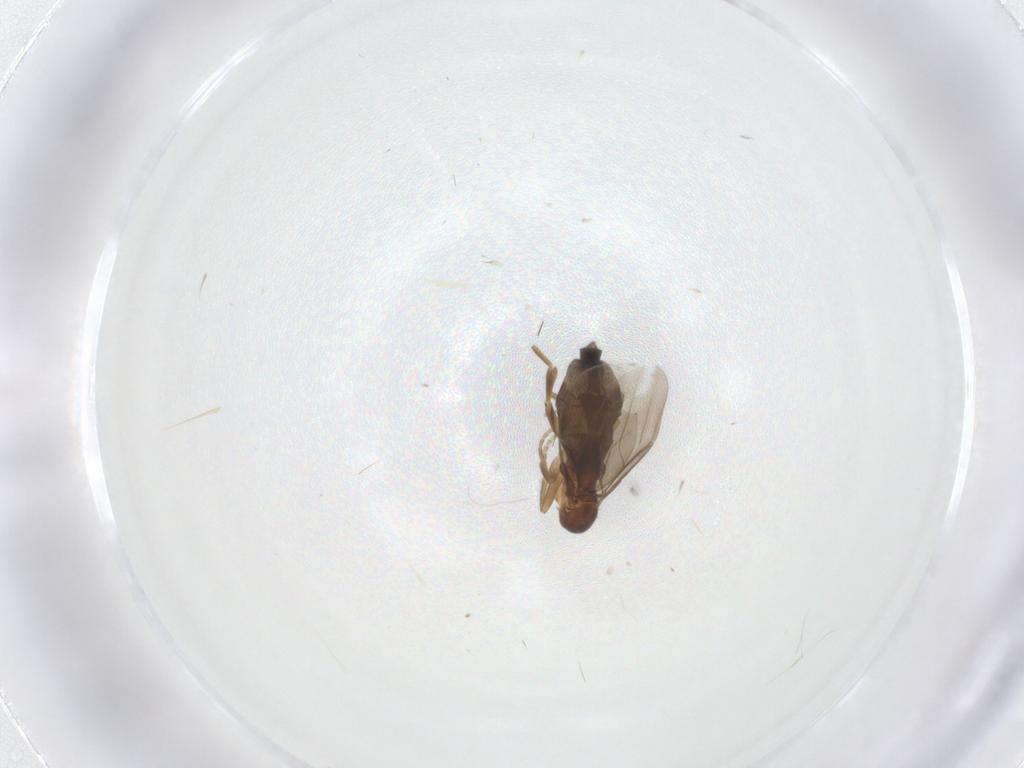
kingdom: Animalia
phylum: Arthropoda
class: Insecta
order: Diptera
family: Phoridae
